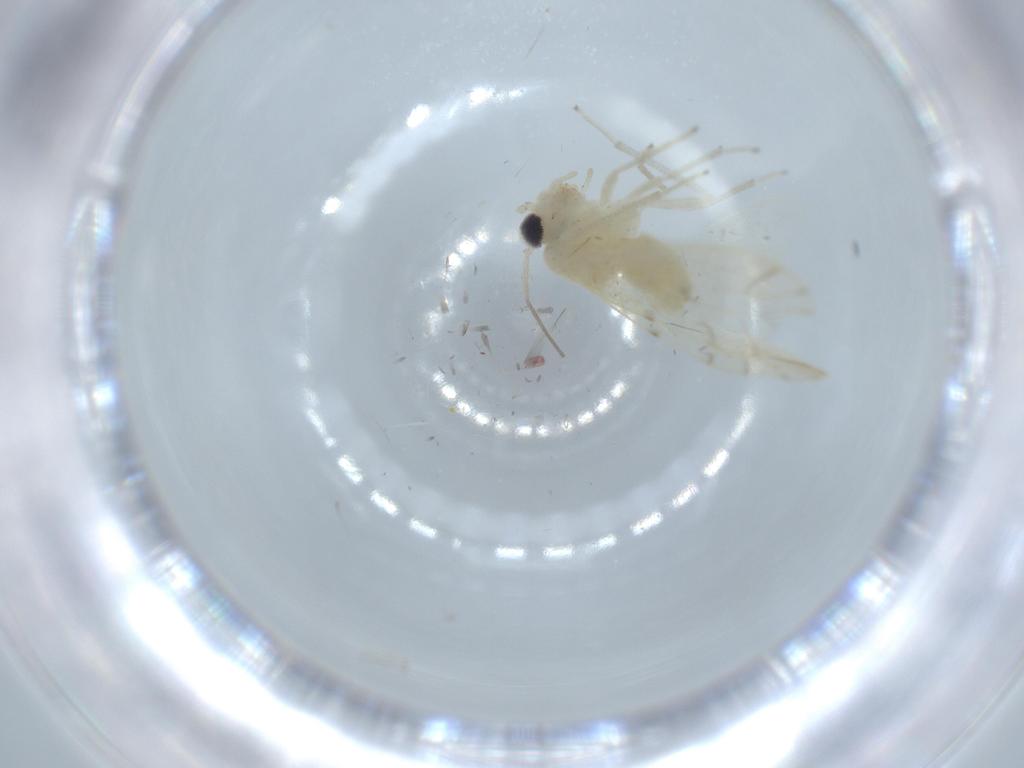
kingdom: Animalia
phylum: Arthropoda
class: Insecta
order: Psocodea
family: Caeciliusidae
